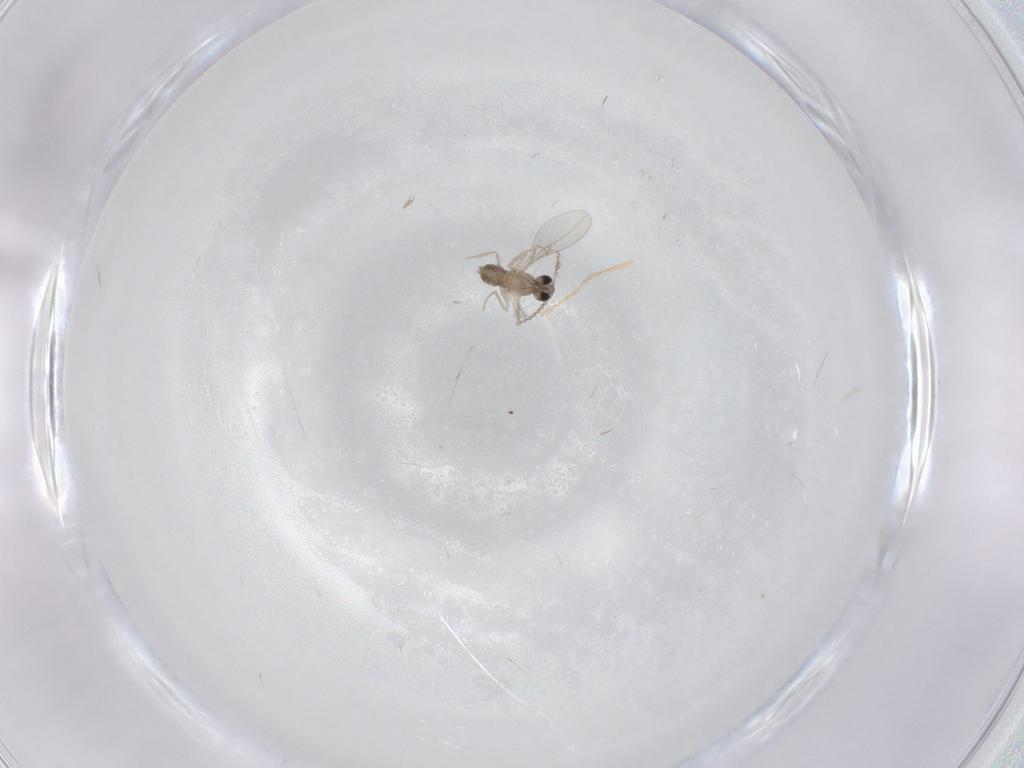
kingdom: Animalia
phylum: Arthropoda
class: Insecta
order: Diptera
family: Cecidomyiidae
